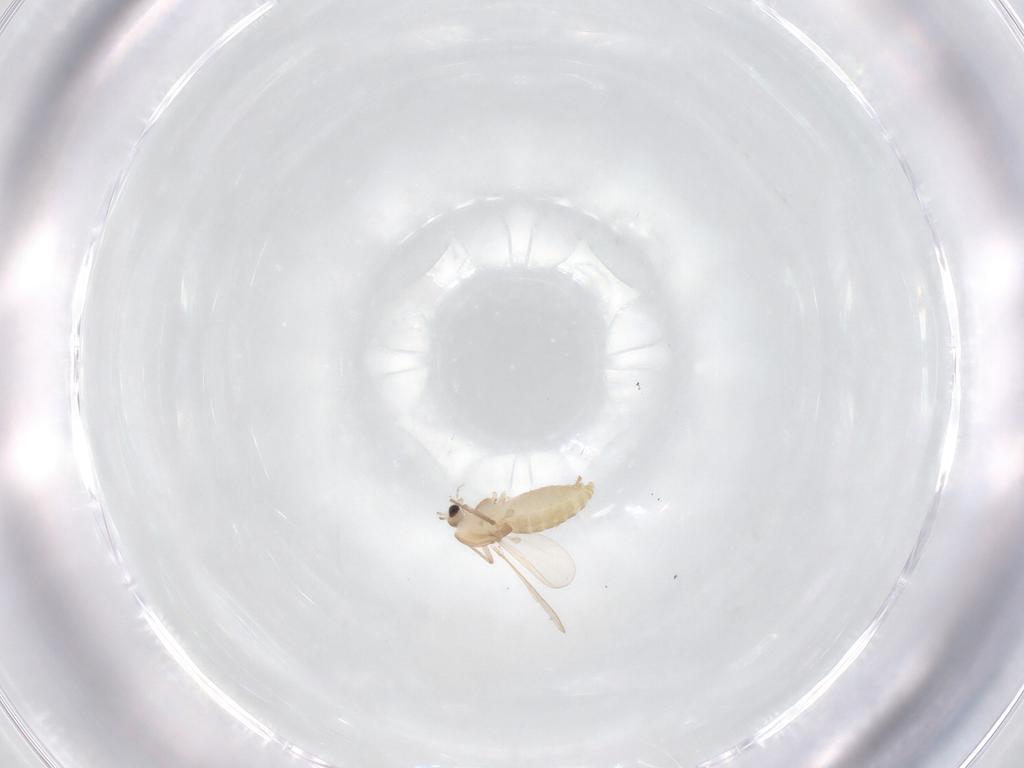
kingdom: Animalia
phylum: Arthropoda
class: Insecta
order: Diptera
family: Chironomidae
